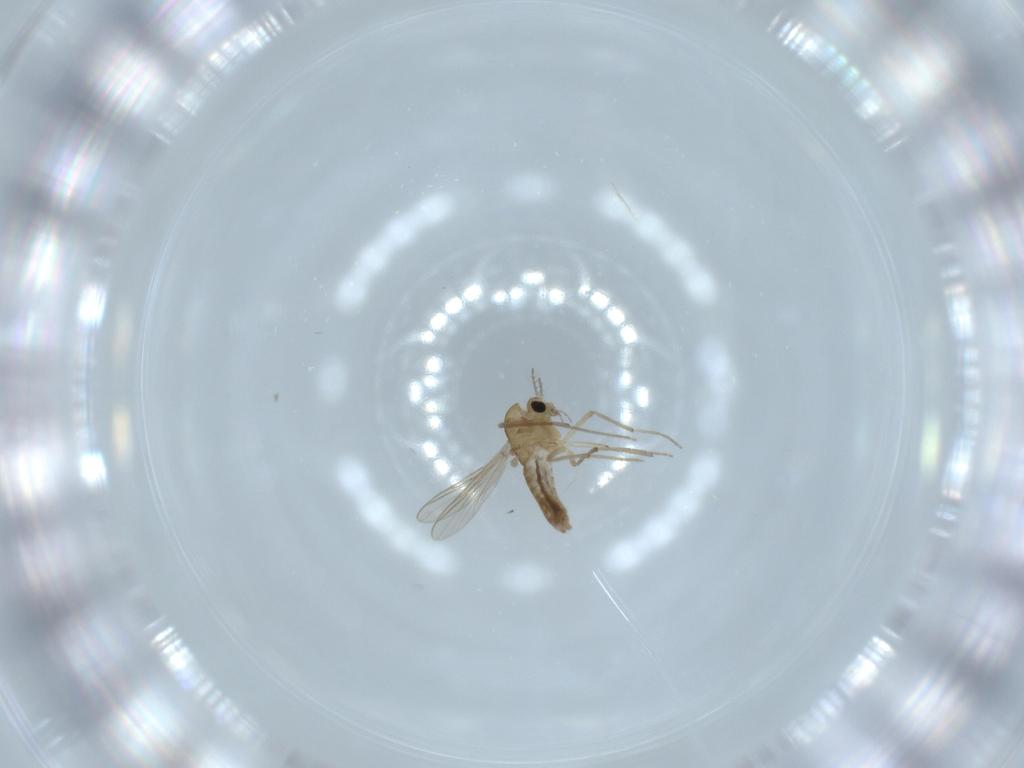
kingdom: Animalia
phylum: Arthropoda
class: Insecta
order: Diptera
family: Chironomidae
